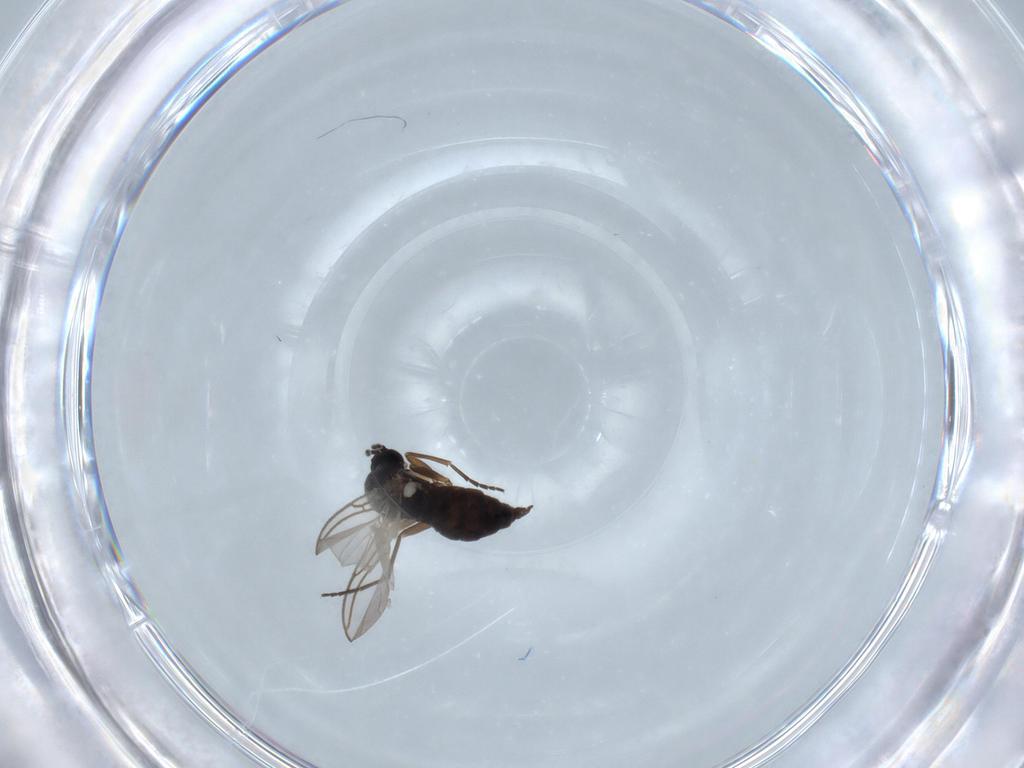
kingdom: Animalia
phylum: Arthropoda
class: Insecta
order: Diptera
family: Sciaridae
